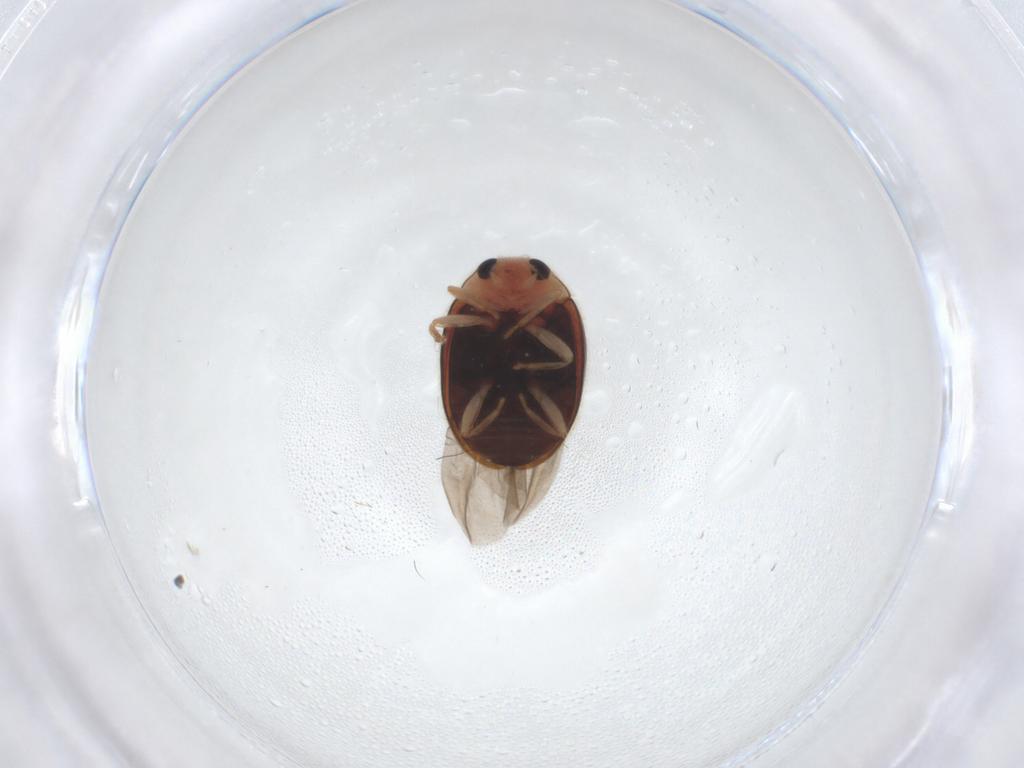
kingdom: Animalia
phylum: Arthropoda
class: Insecta
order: Coleoptera
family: Coccinellidae
